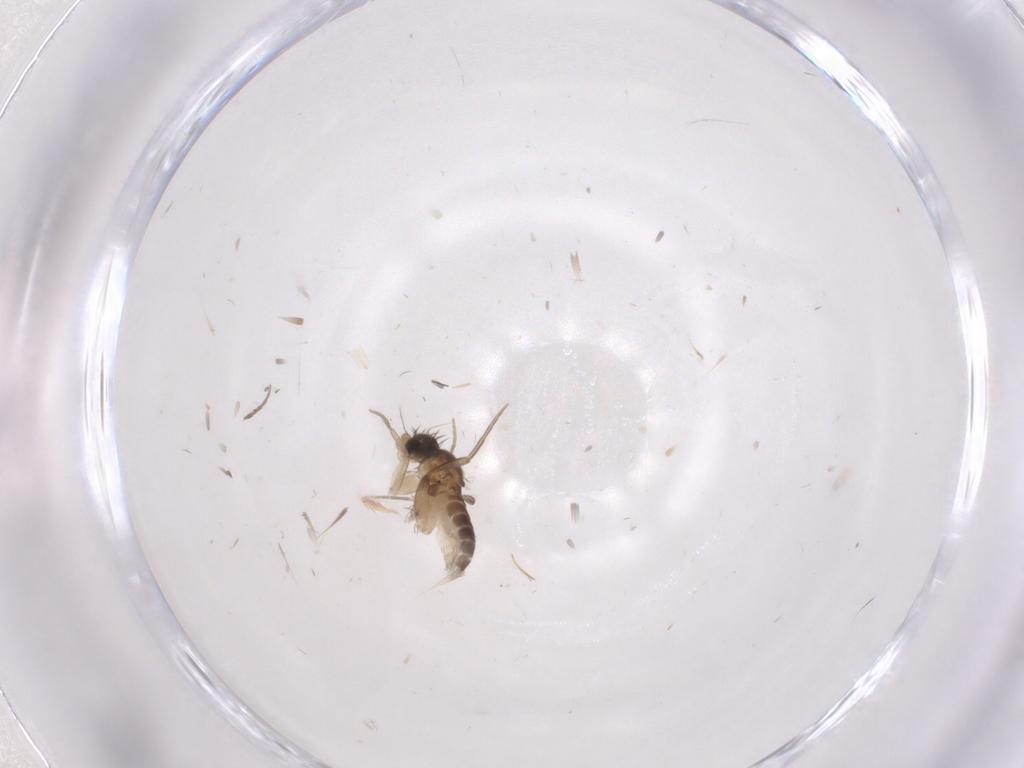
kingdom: Animalia
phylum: Arthropoda
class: Insecta
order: Diptera
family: Phoridae
